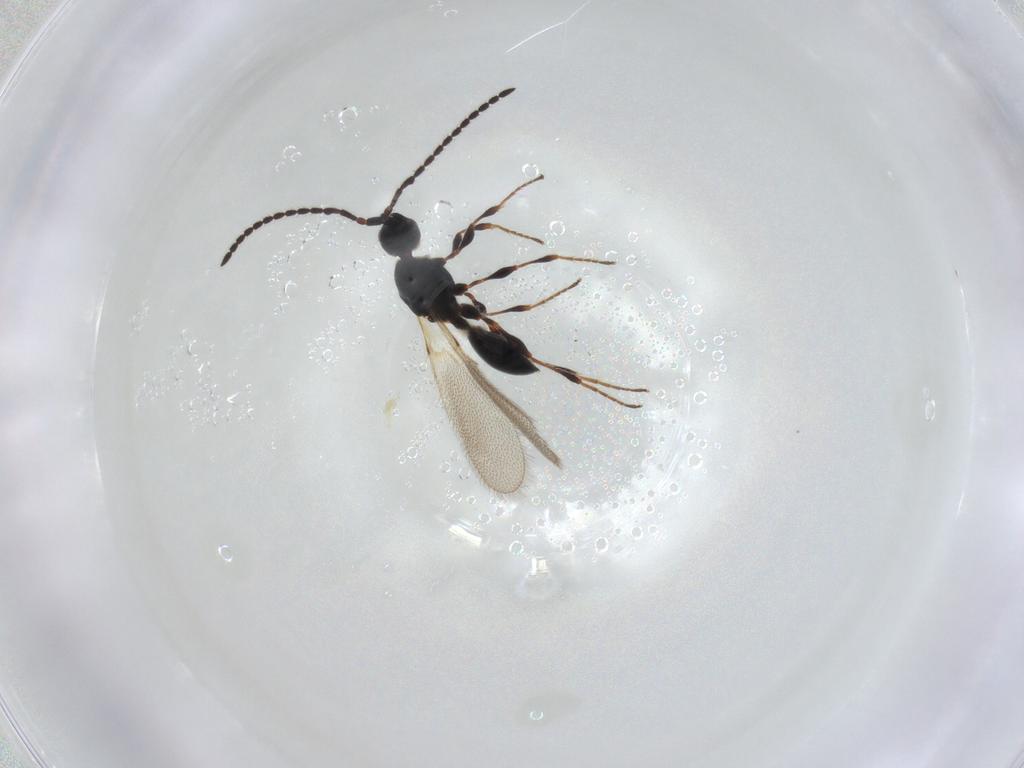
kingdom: Animalia
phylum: Arthropoda
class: Insecta
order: Hymenoptera
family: Diapriidae
